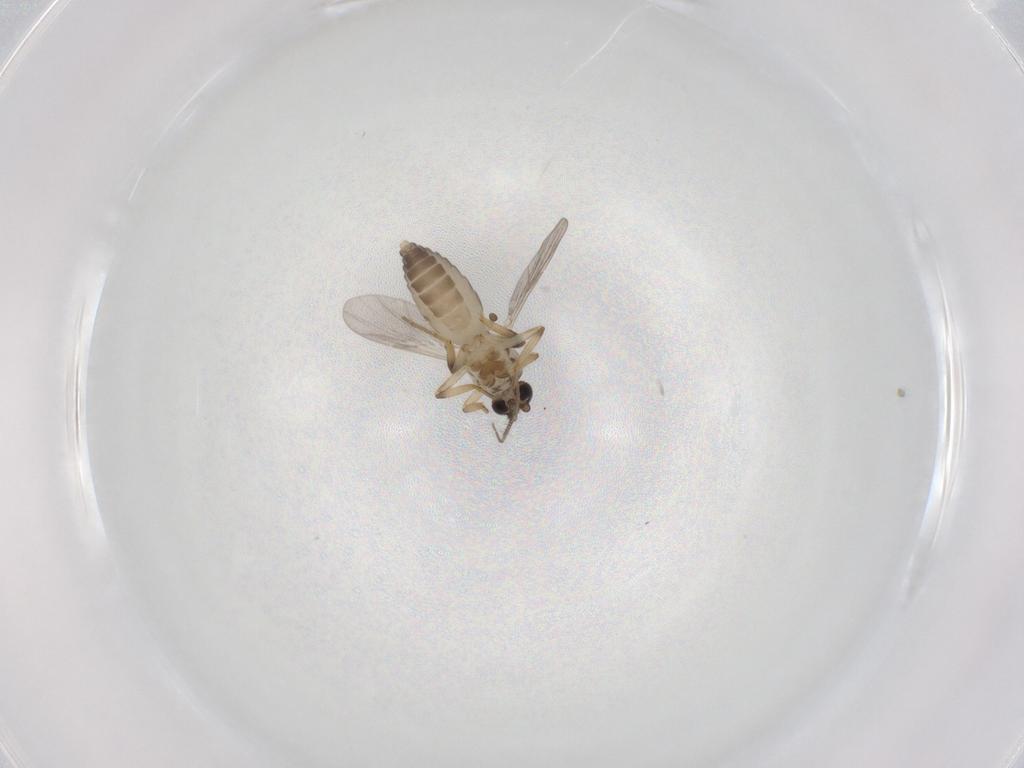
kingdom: Animalia
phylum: Arthropoda
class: Insecta
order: Diptera
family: Ceratopogonidae
